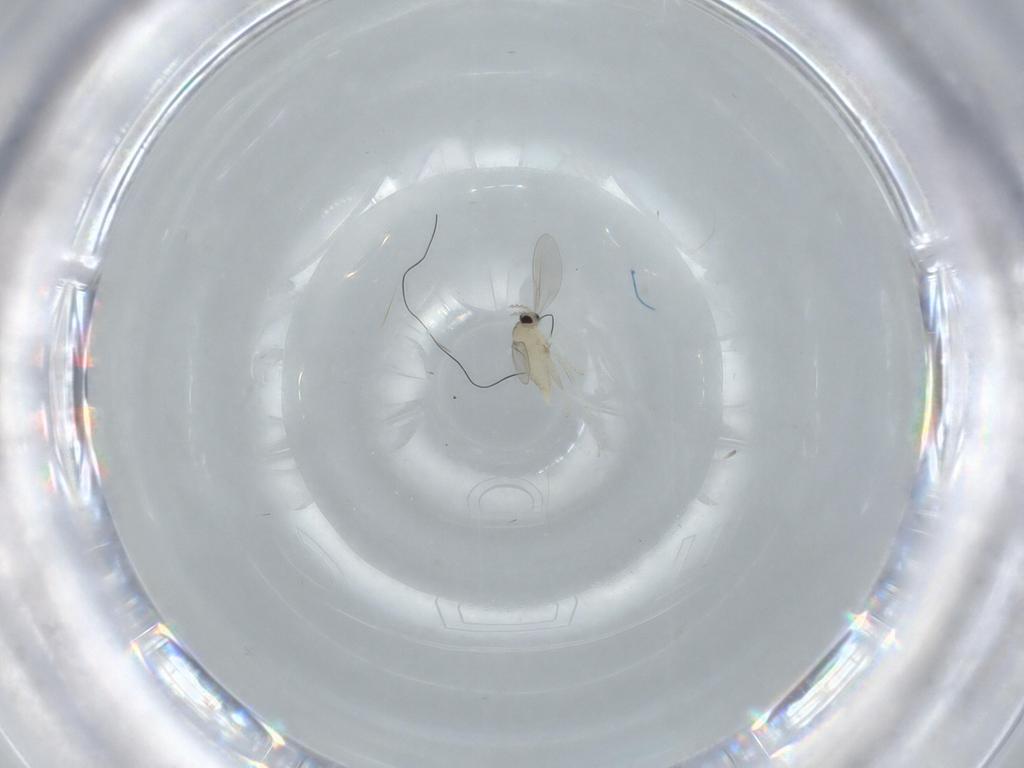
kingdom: Animalia
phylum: Arthropoda
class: Insecta
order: Diptera
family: Cecidomyiidae
